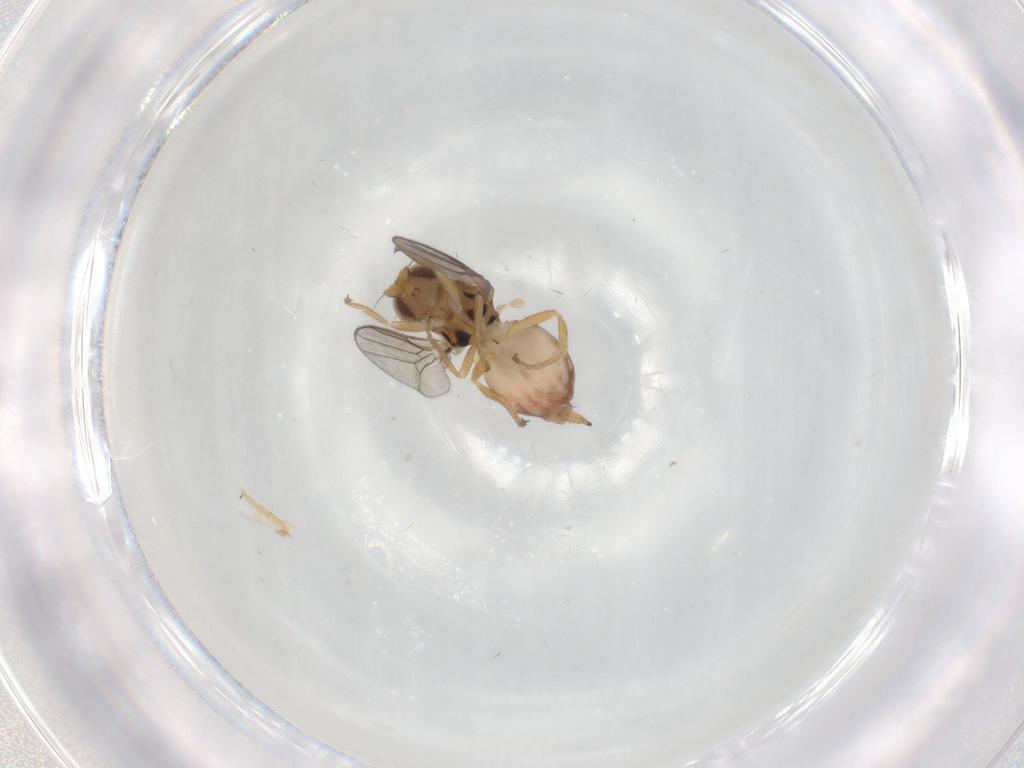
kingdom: Animalia
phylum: Arthropoda
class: Insecta
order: Diptera
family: Chloropidae
